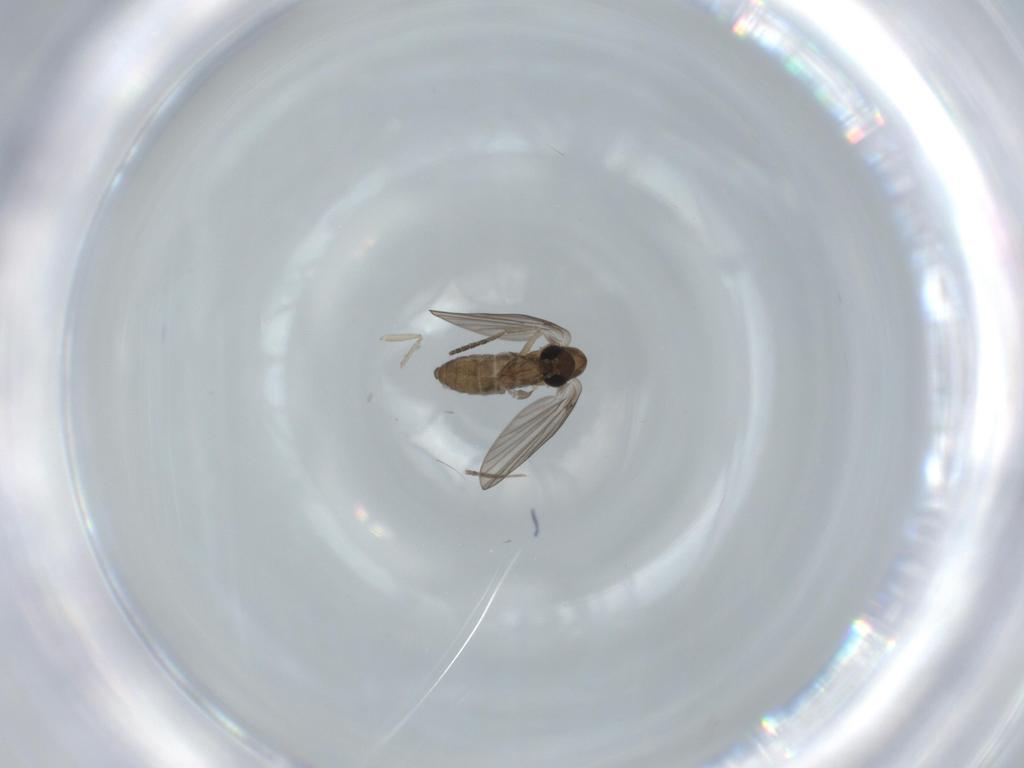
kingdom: Animalia
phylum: Arthropoda
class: Insecta
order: Diptera
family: Psychodidae
